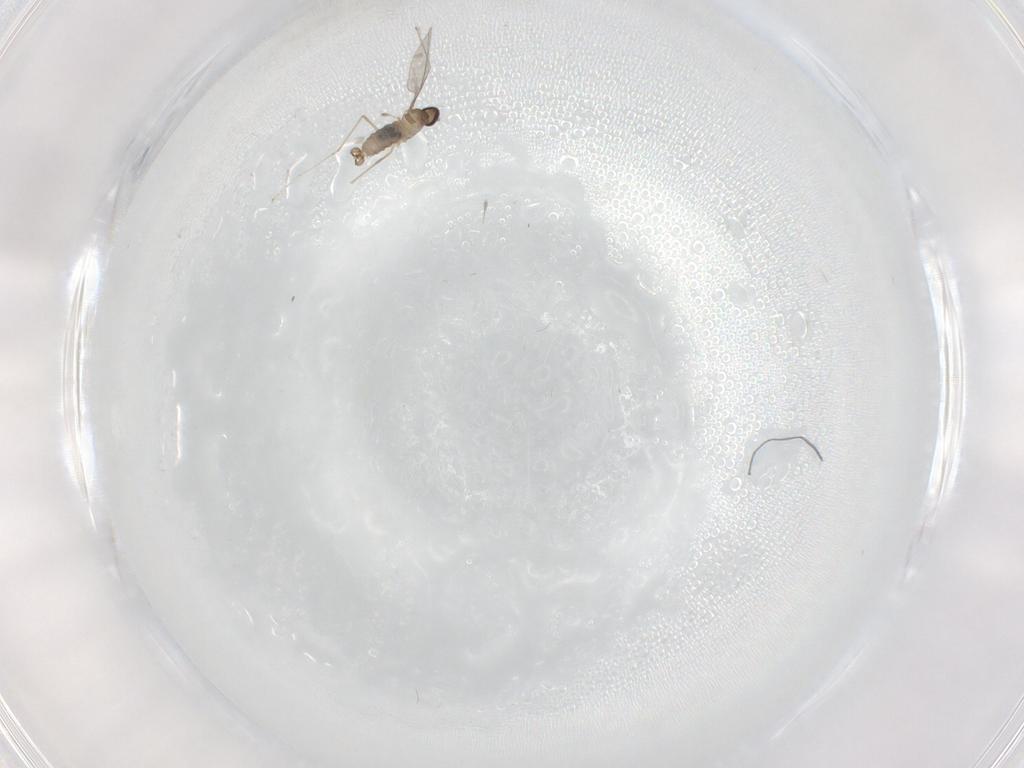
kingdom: Animalia
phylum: Arthropoda
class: Insecta
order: Diptera
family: Cecidomyiidae
